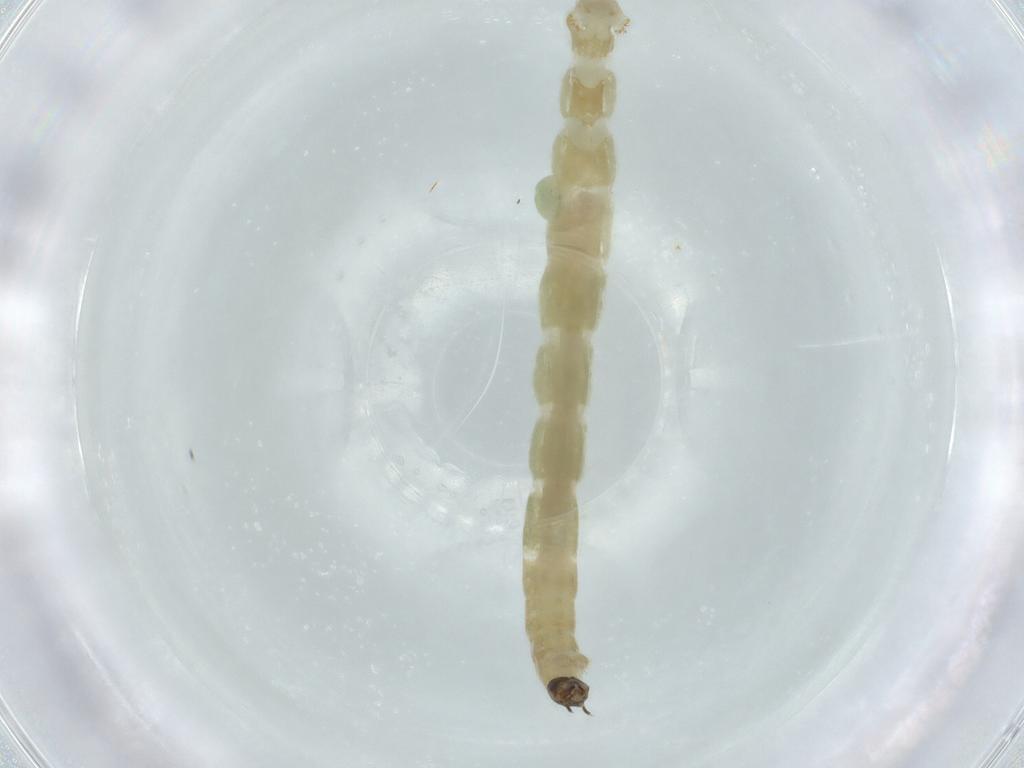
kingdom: Animalia
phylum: Arthropoda
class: Insecta
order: Diptera
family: Chironomidae
